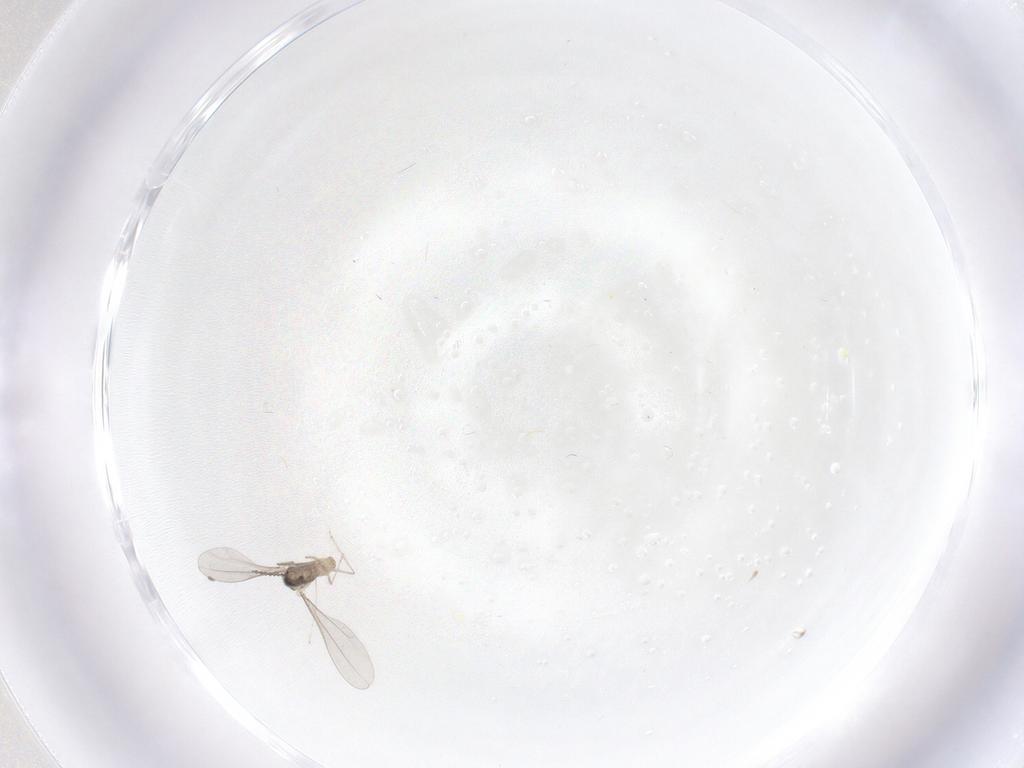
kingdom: Animalia
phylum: Arthropoda
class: Insecta
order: Diptera
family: Cecidomyiidae
